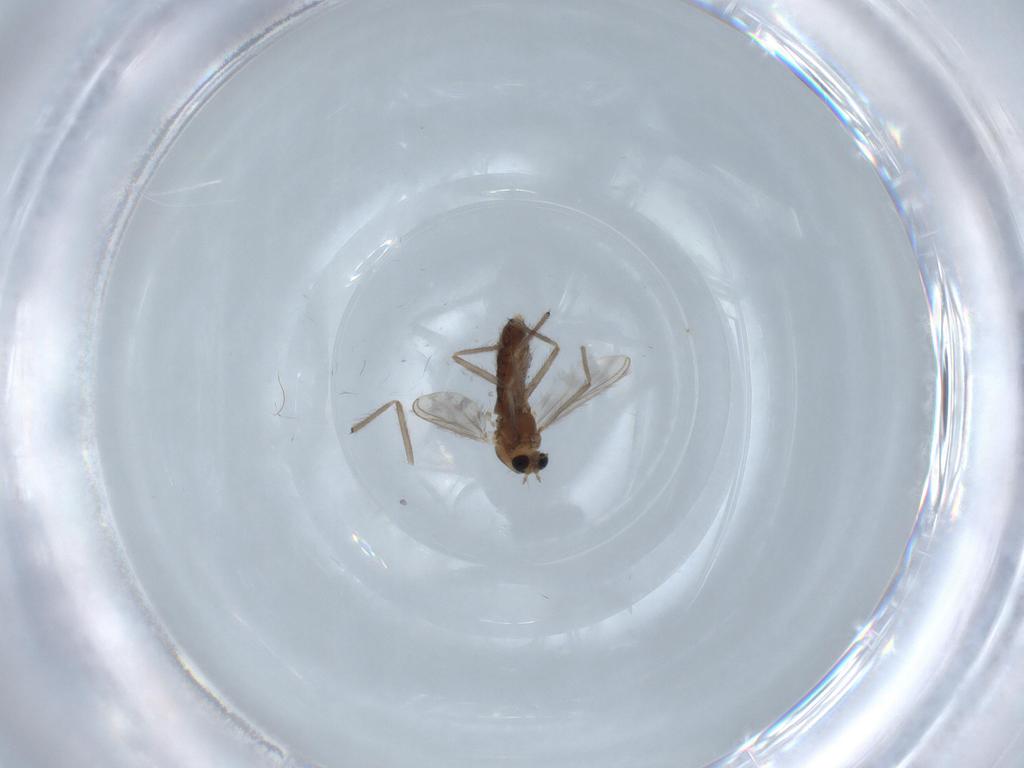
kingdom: Animalia
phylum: Arthropoda
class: Insecta
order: Diptera
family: Chironomidae
